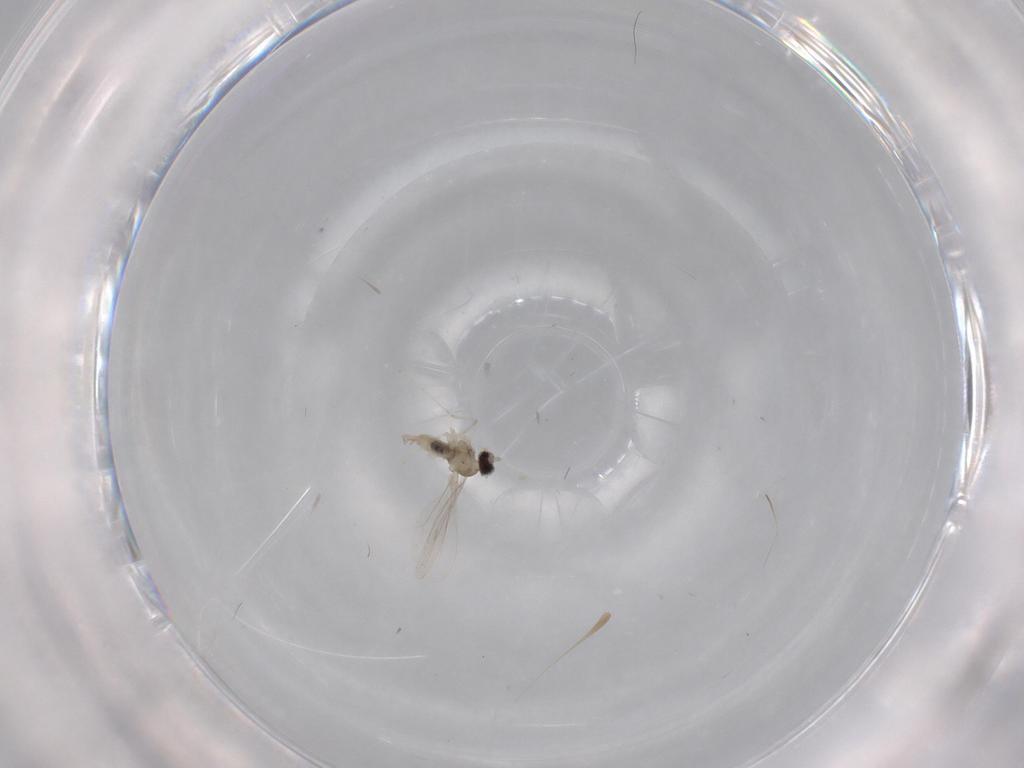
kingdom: Animalia
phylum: Arthropoda
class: Insecta
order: Diptera
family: Cecidomyiidae
